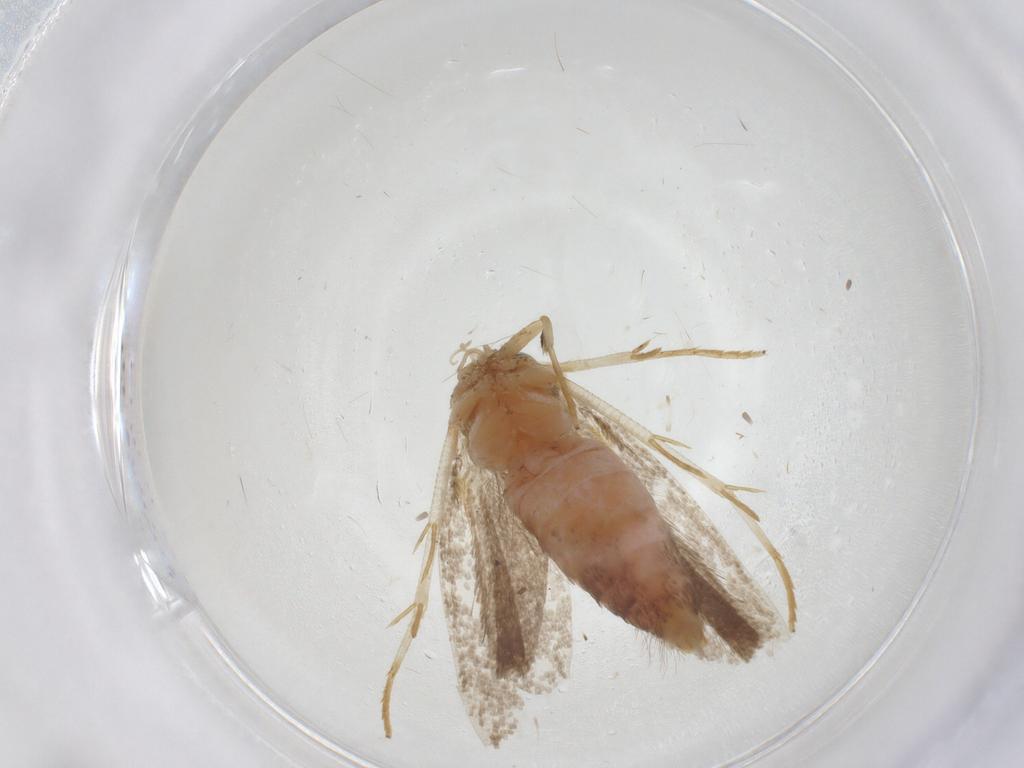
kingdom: Animalia
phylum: Arthropoda
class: Insecta
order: Lepidoptera
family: Gelechiidae
